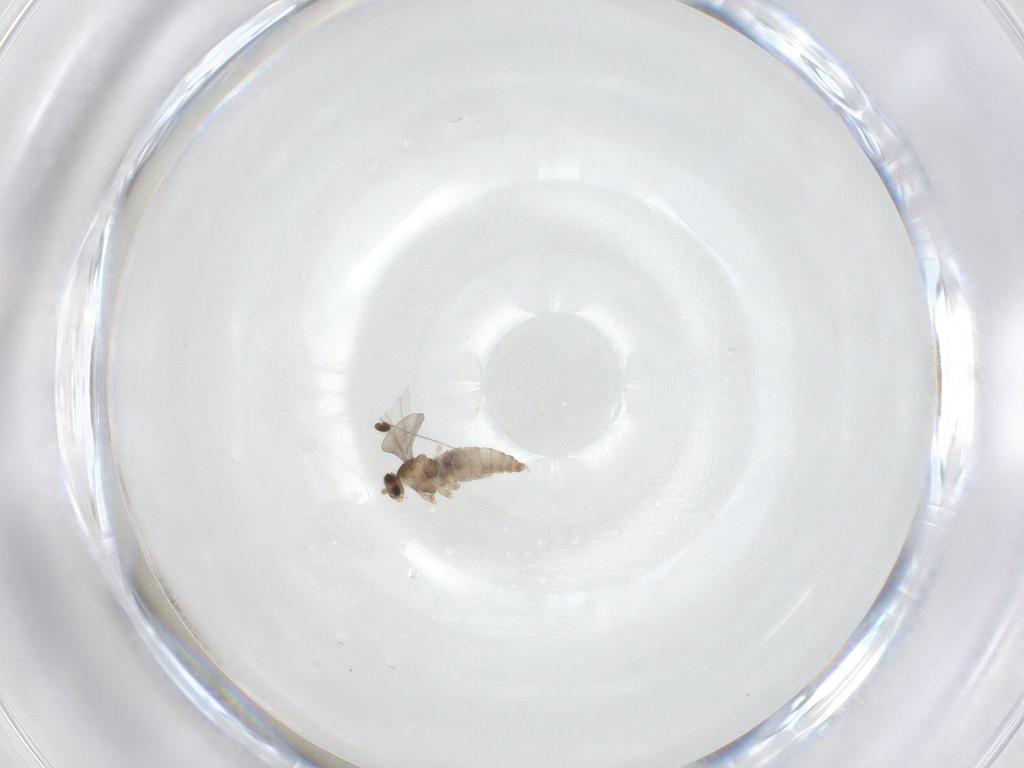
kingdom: Animalia
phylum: Arthropoda
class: Insecta
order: Diptera
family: Cecidomyiidae
